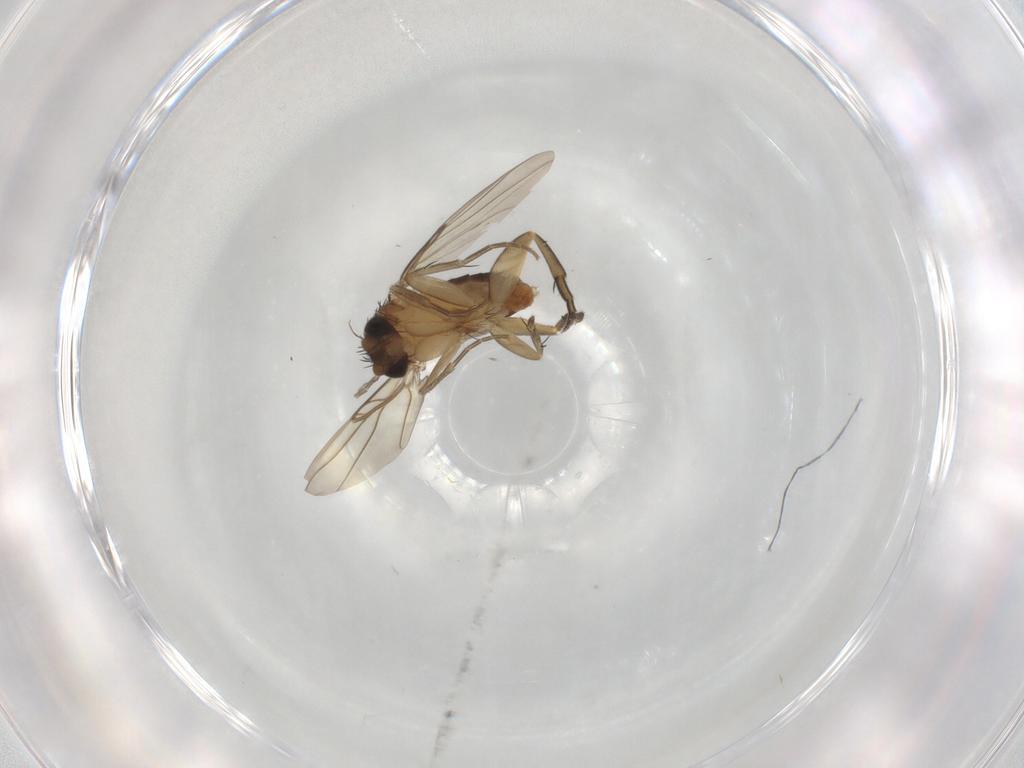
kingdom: Animalia
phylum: Arthropoda
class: Insecta
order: Diptera
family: Phoridae
